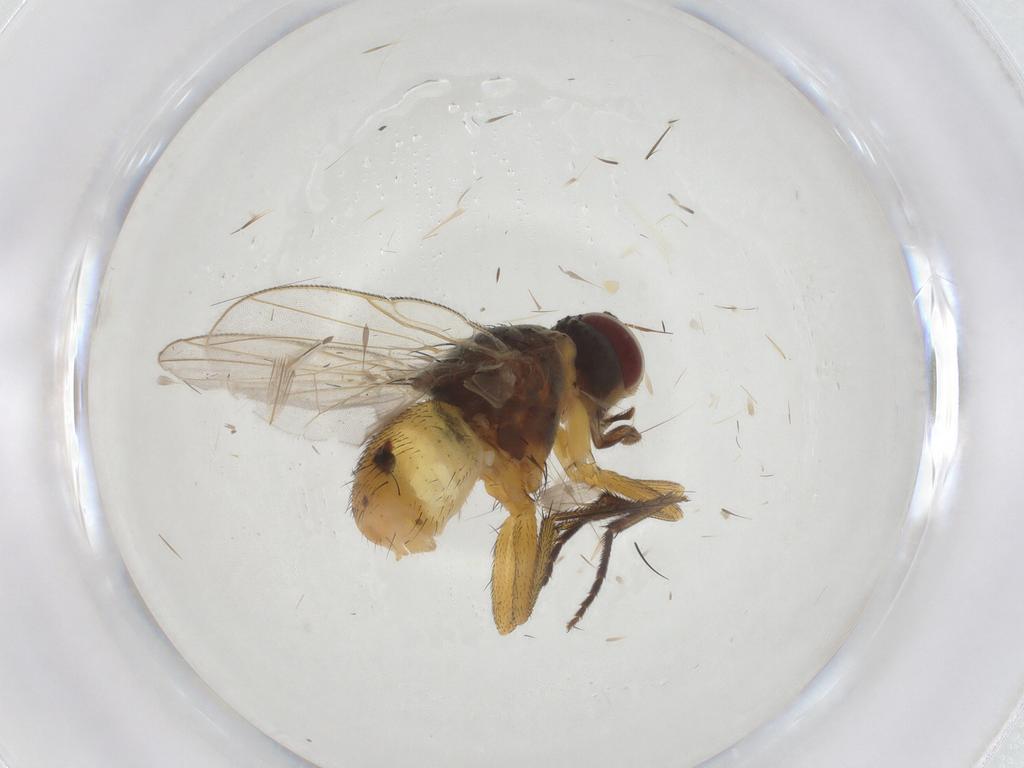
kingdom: Animalia
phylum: Arthropoda
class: Insecta
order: Diptera
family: Muscidae
